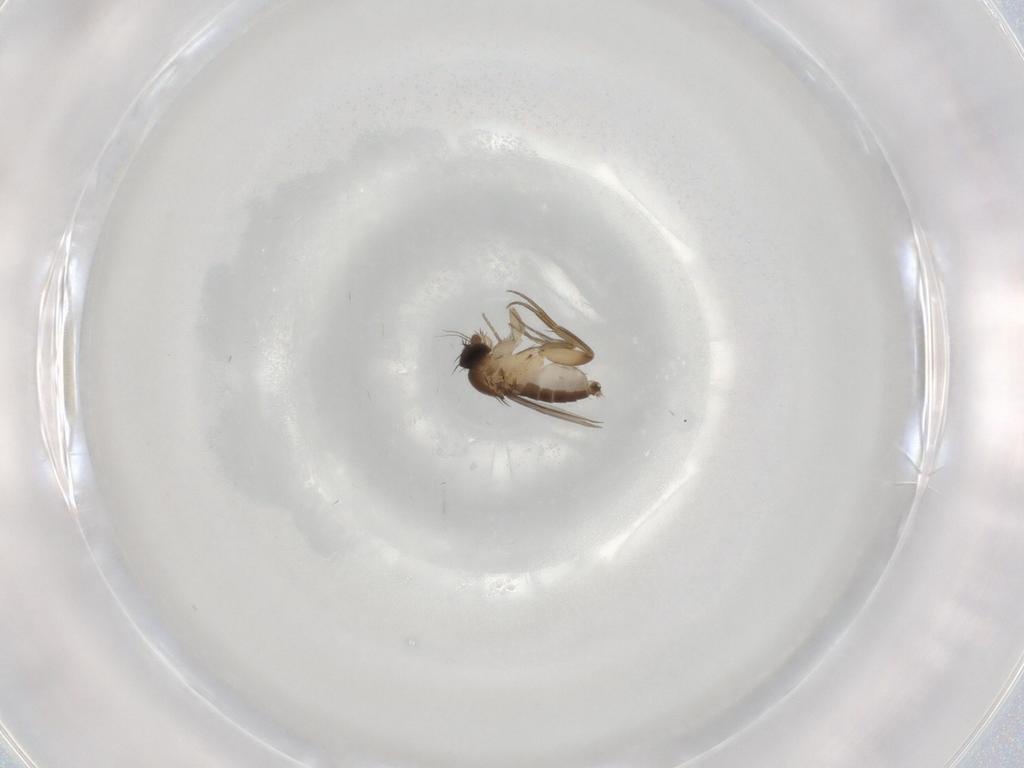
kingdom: Animalia
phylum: Arthropoda
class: Insecta
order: Diptera
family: Phoridae
